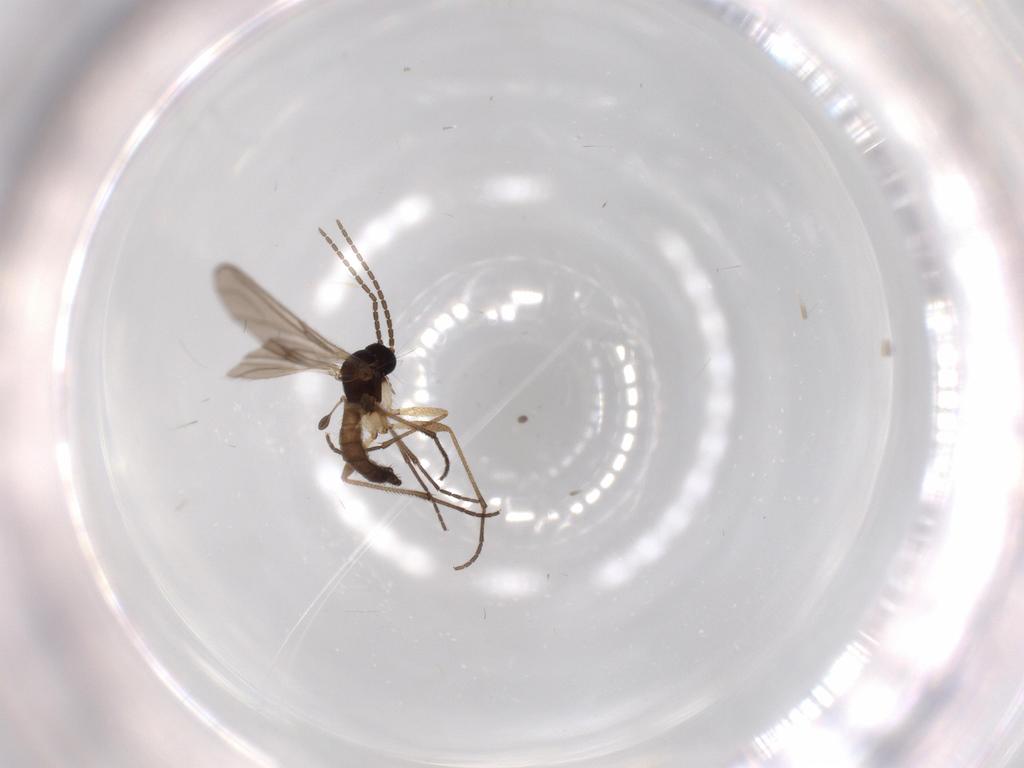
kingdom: Animalia
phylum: Arthropoda
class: Insecta
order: Diptera
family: Sciaridae
